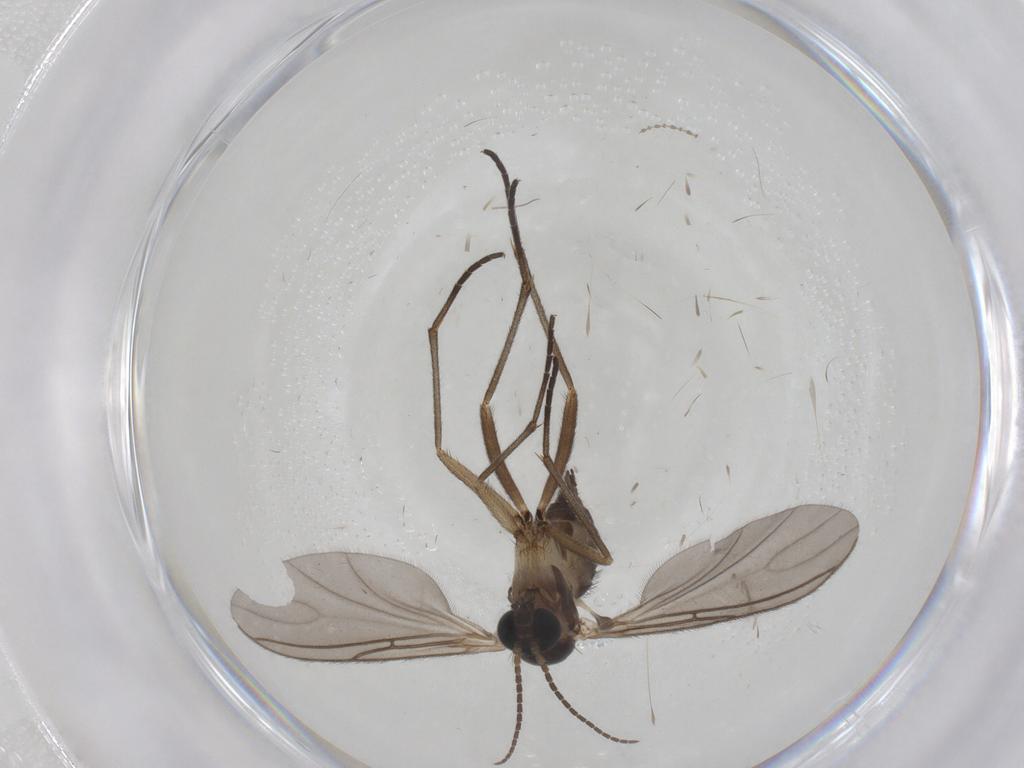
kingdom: Animalia
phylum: Arthropoda
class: Insecta
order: Diptera
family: Sciaridae
